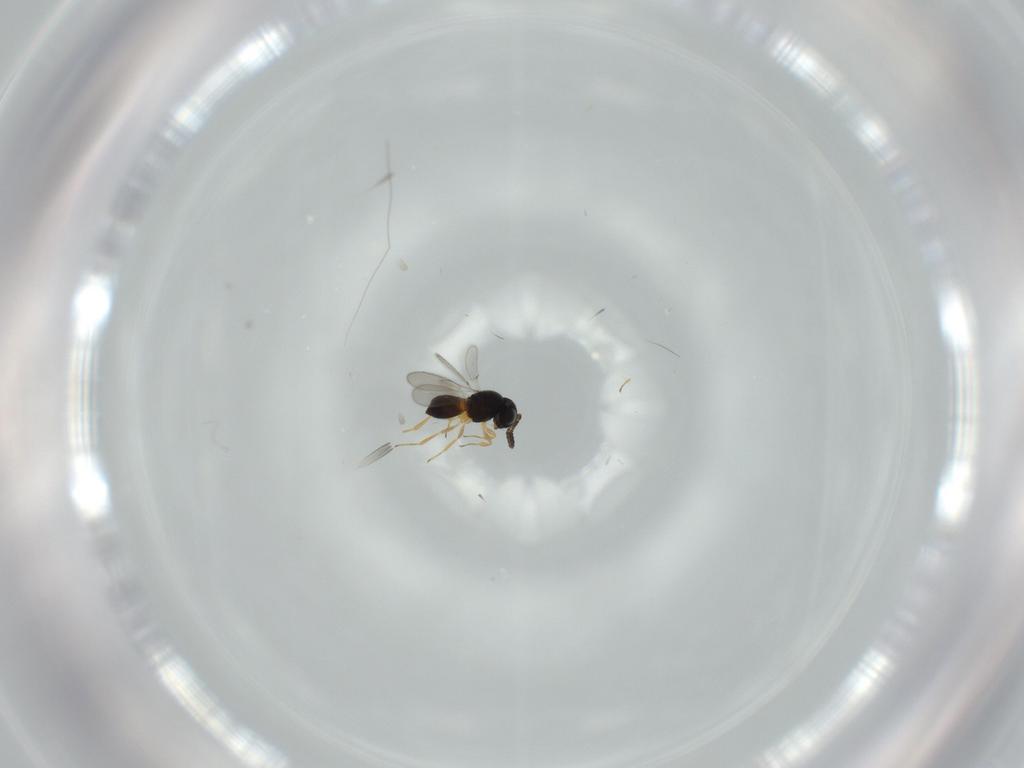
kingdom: Animalia
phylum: Arthropoda
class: Insecta
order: Hymenoptera
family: Scelionidae
